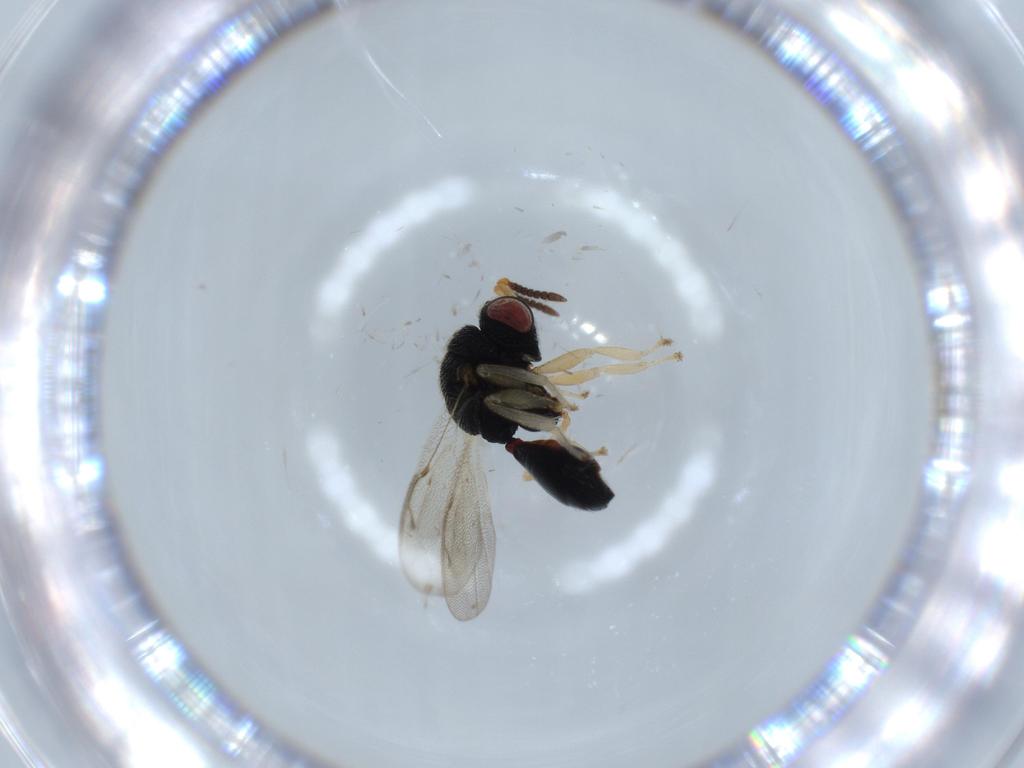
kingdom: Animalia
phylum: Arthropoda
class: Insecta
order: Hymenoptera
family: Eurytomidae
